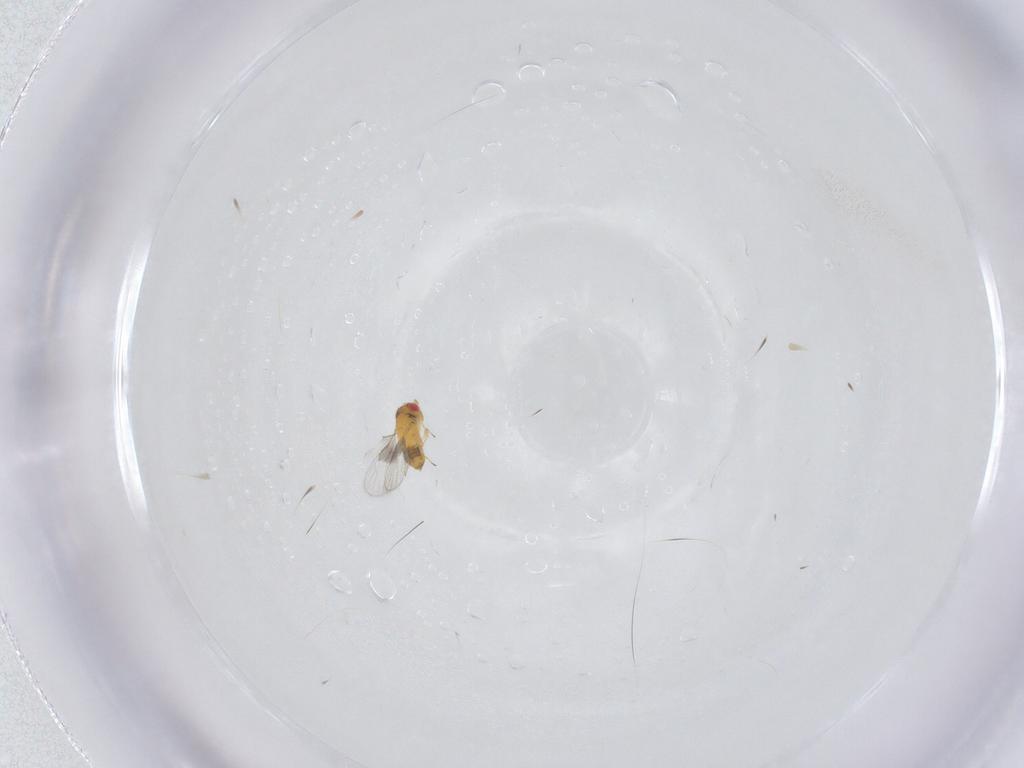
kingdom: Animalia
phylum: Arthropoda
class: Insecta
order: Hymenoptera
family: Trichogrammatidae
